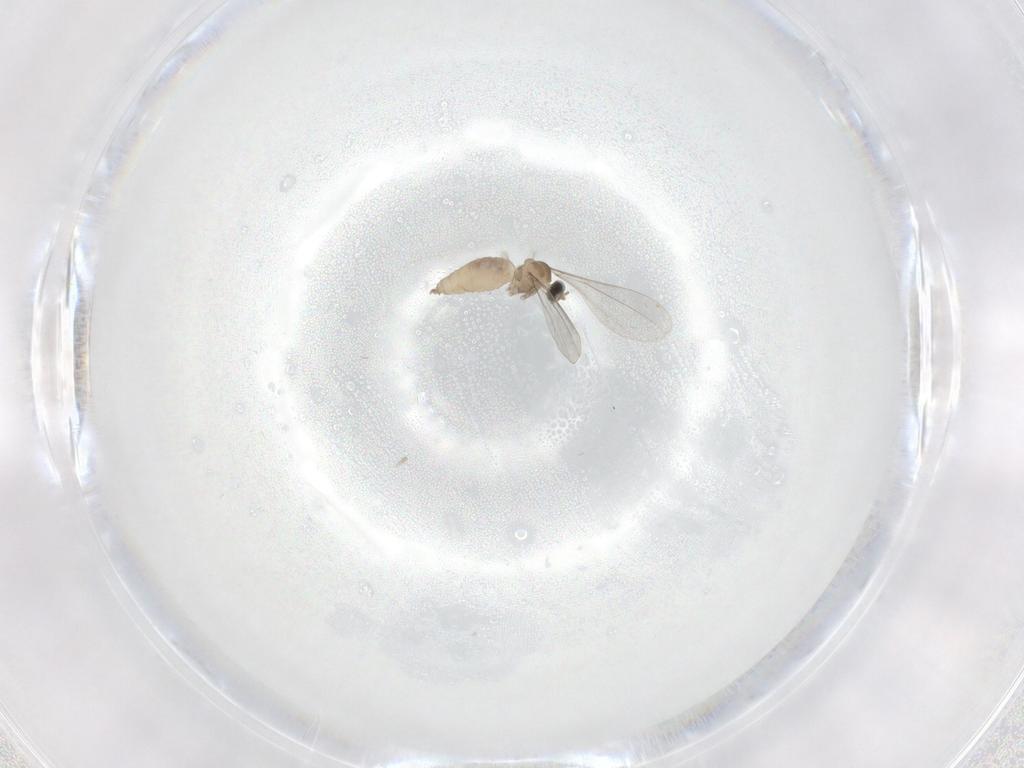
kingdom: Animalia
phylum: Arthropoda
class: Insecta
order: Diptera
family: Cecidomyiidae
